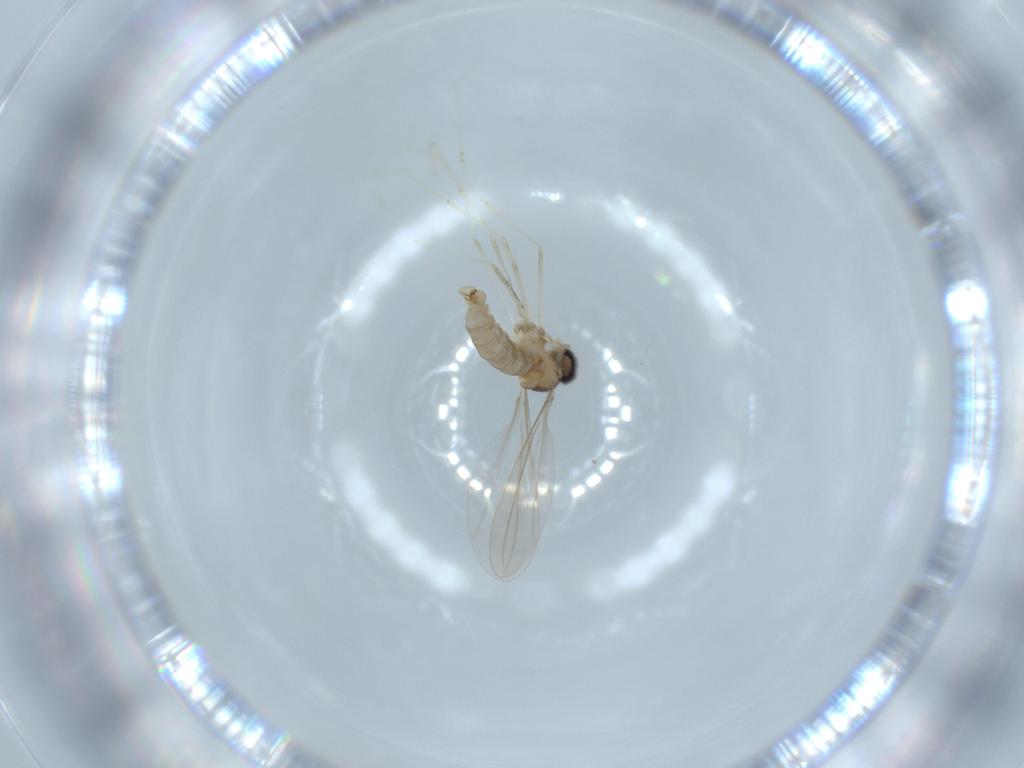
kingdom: Animalia
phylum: Arthropoda
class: Insecta
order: Diptera
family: Cecidomyiidae
